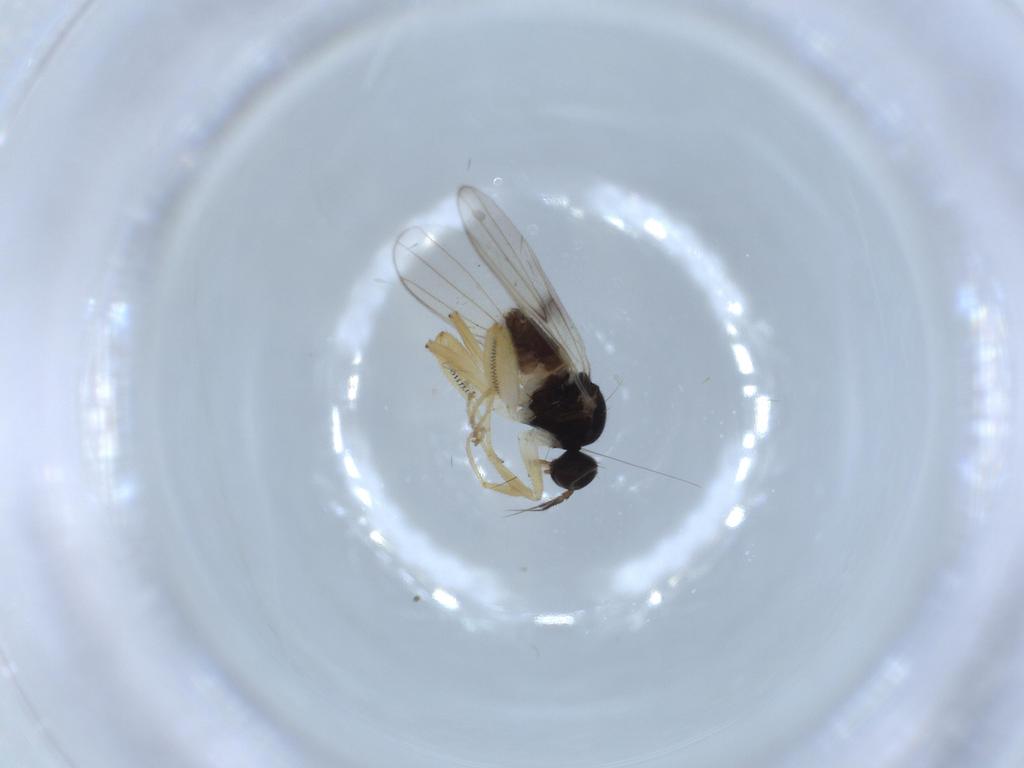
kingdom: Animalia
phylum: Arthropoda
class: Insecta
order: Diptera
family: Hybotidae
